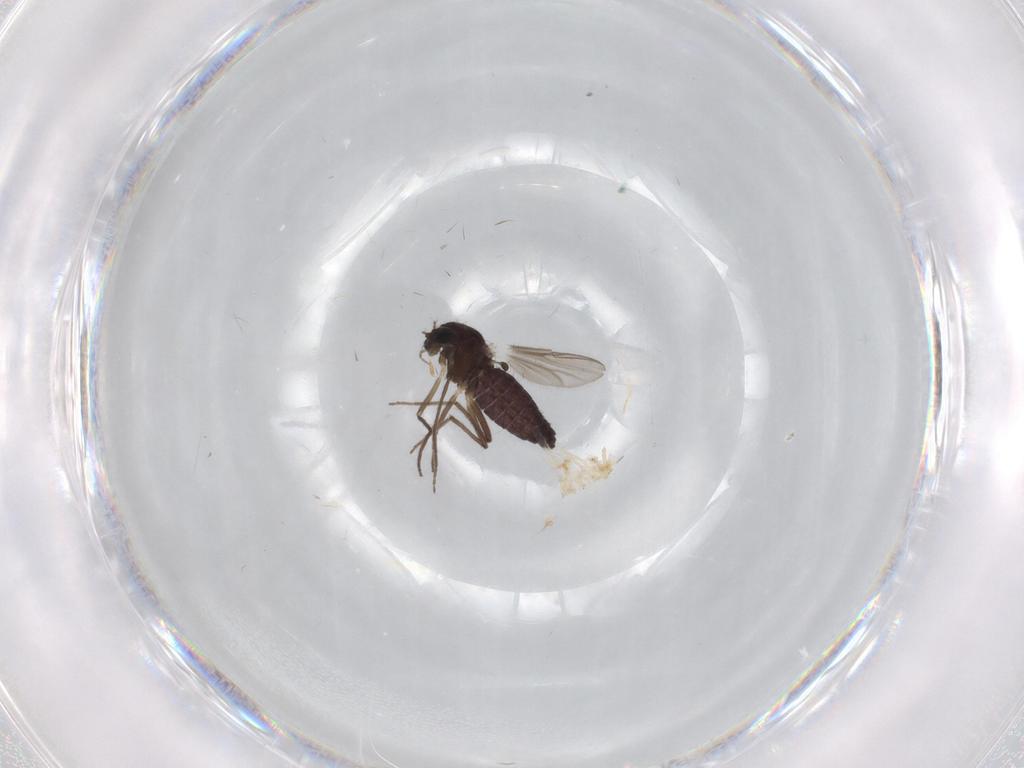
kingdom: Animalia
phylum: Arthropoda
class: Insecta
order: Diptera
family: Chironomidae
